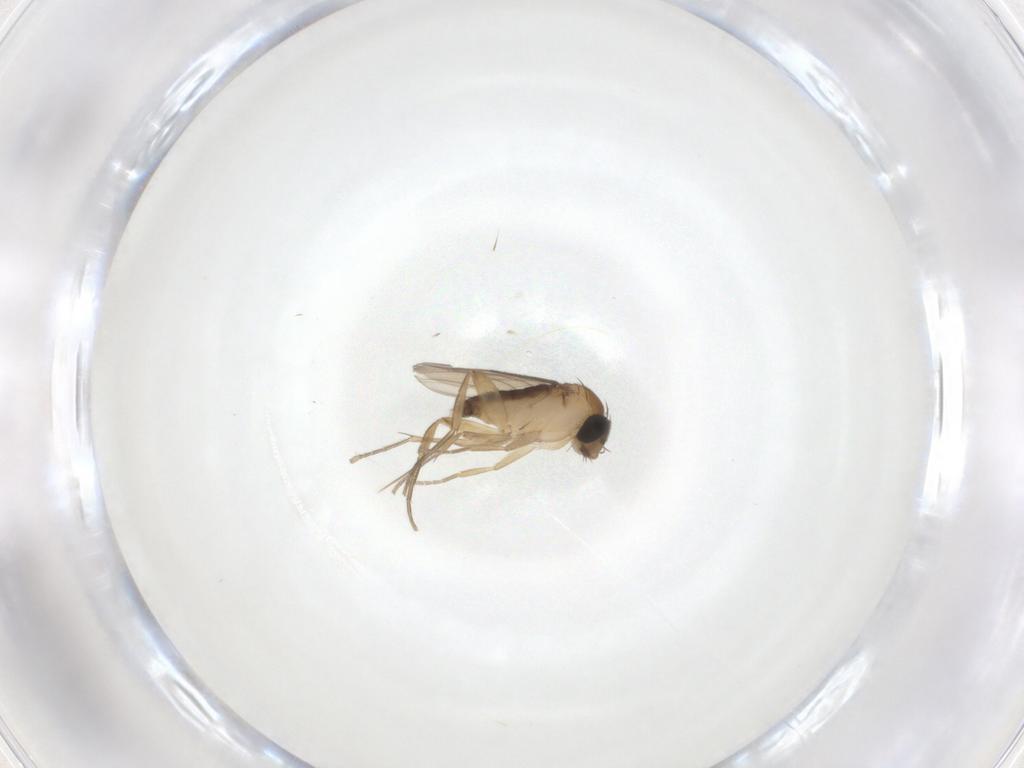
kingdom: Animalia
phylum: Arthropoda
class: Insecta
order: Diptera
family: Phoridae
